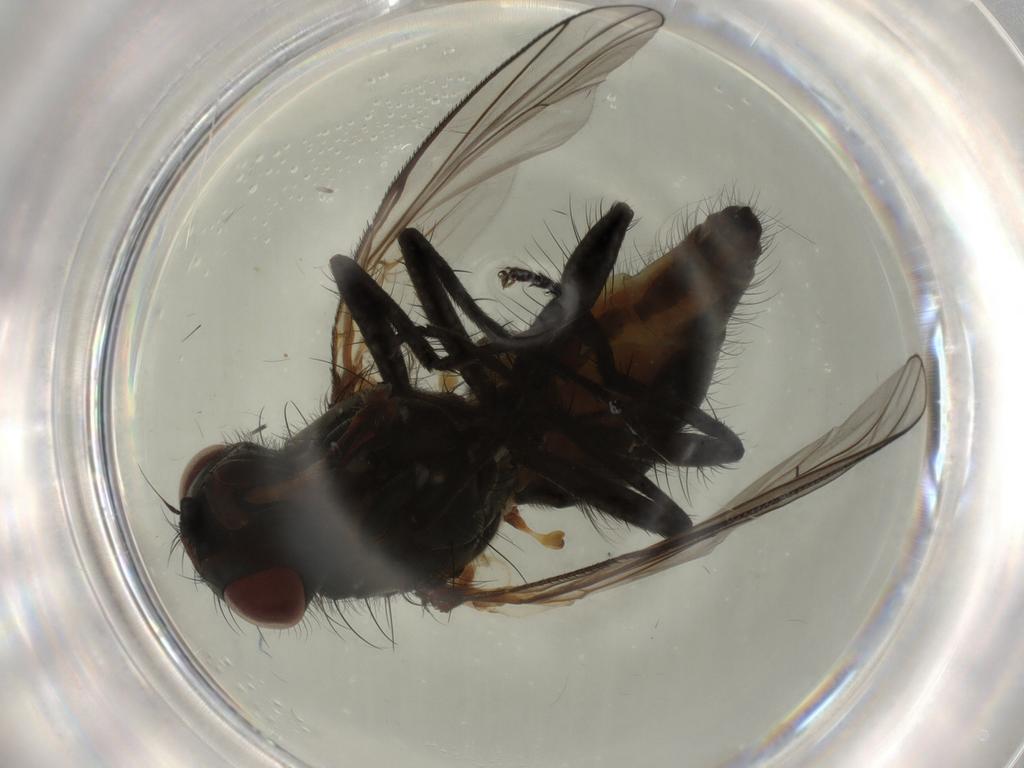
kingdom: Animalia
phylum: Arthropoda
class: Insecta
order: Diptera
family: Anthomyiidae
